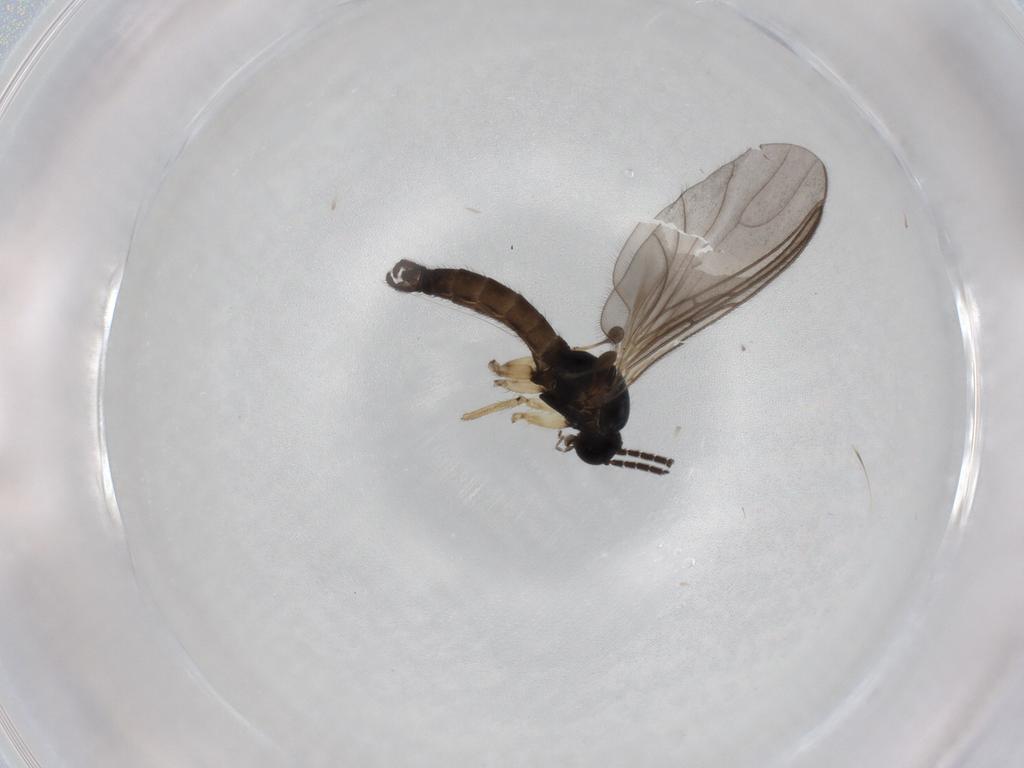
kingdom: Animalia
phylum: Arthropoda
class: Insecta
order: Diptera
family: Sciaridae
